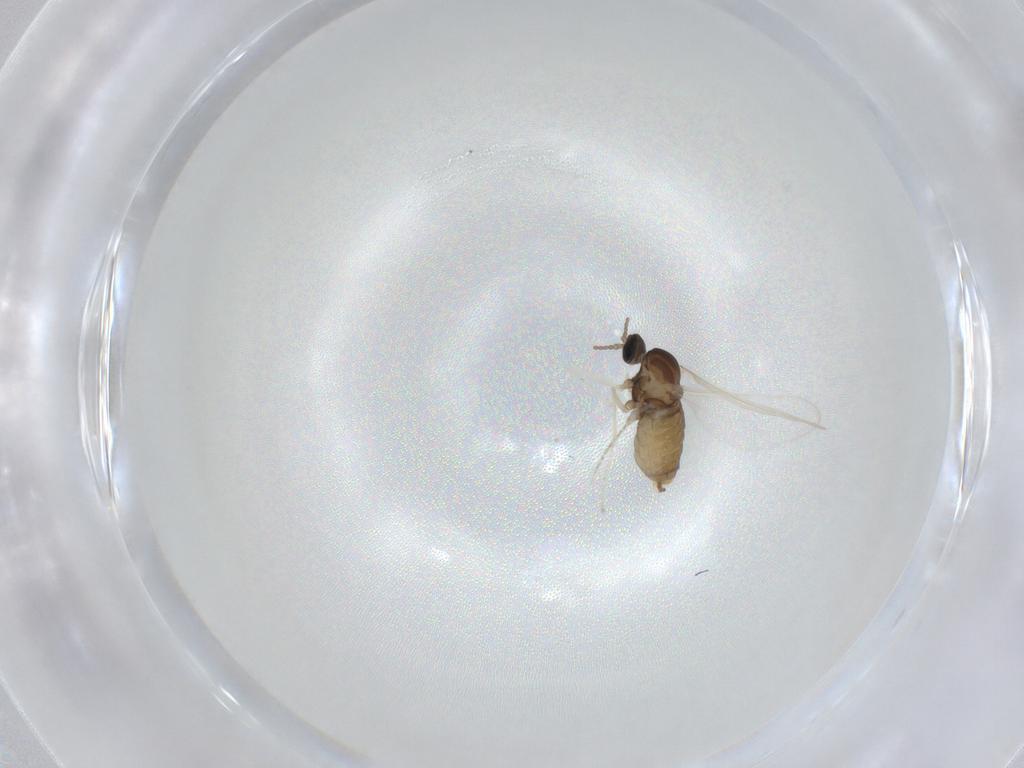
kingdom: Animalia
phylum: Arthropoda
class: Insecta
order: Diptera
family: Cecidomyiidae
